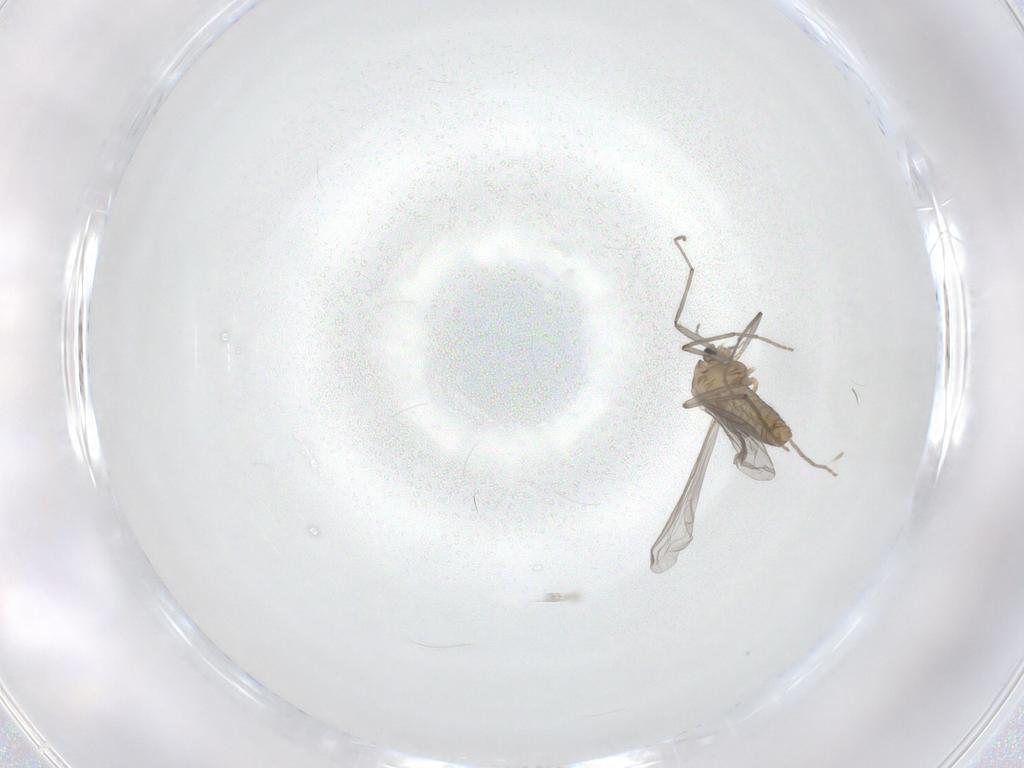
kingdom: Animalia
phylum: Arthropoda
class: Insecta
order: Diptera
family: Chironomidae
